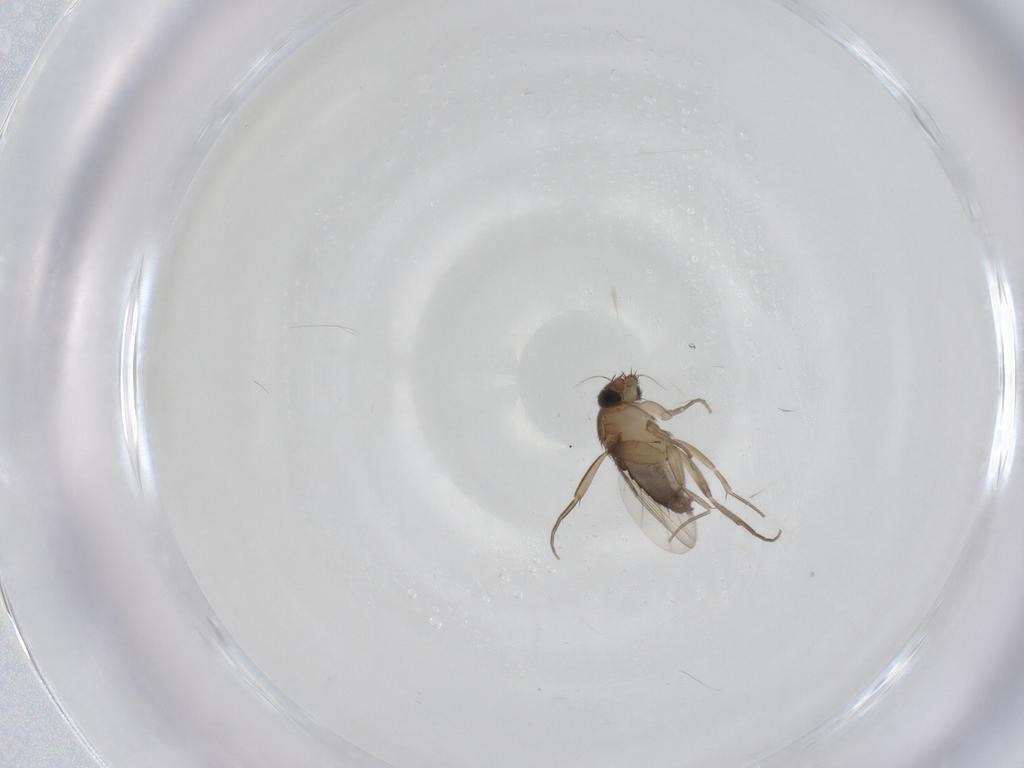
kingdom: Animalia
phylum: Arthropoda
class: Insecta
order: Diptera
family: Phoridae
